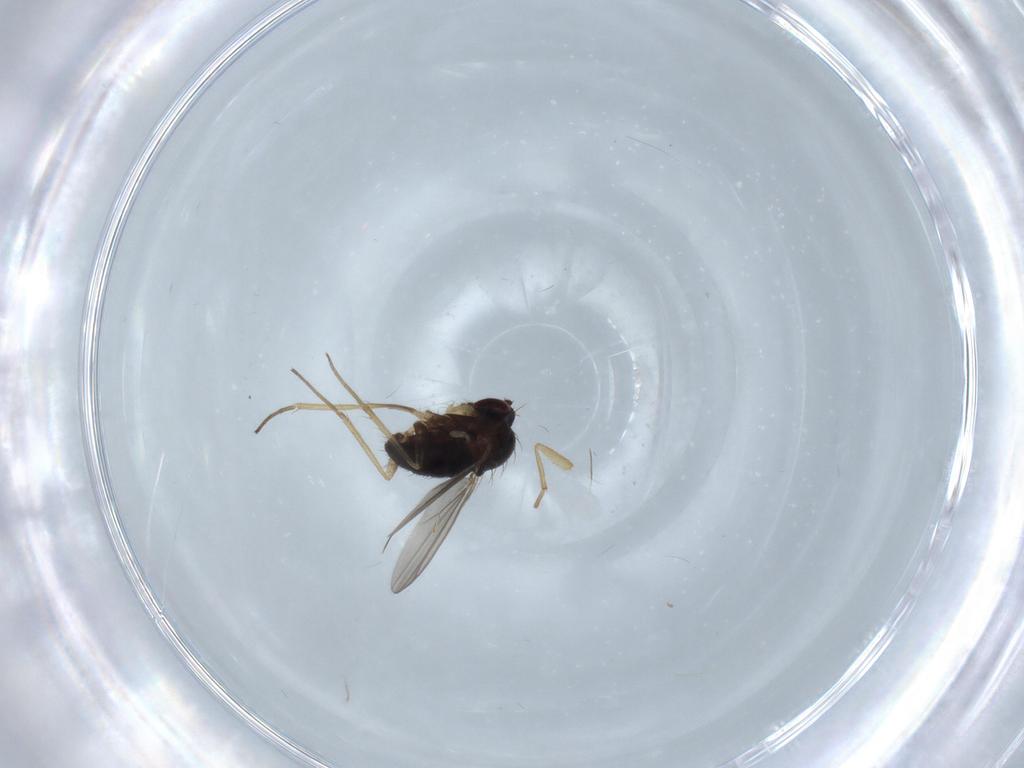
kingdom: Animalia
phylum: Arthropoda
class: Insecta
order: Diptera
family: Dolichopodidae
